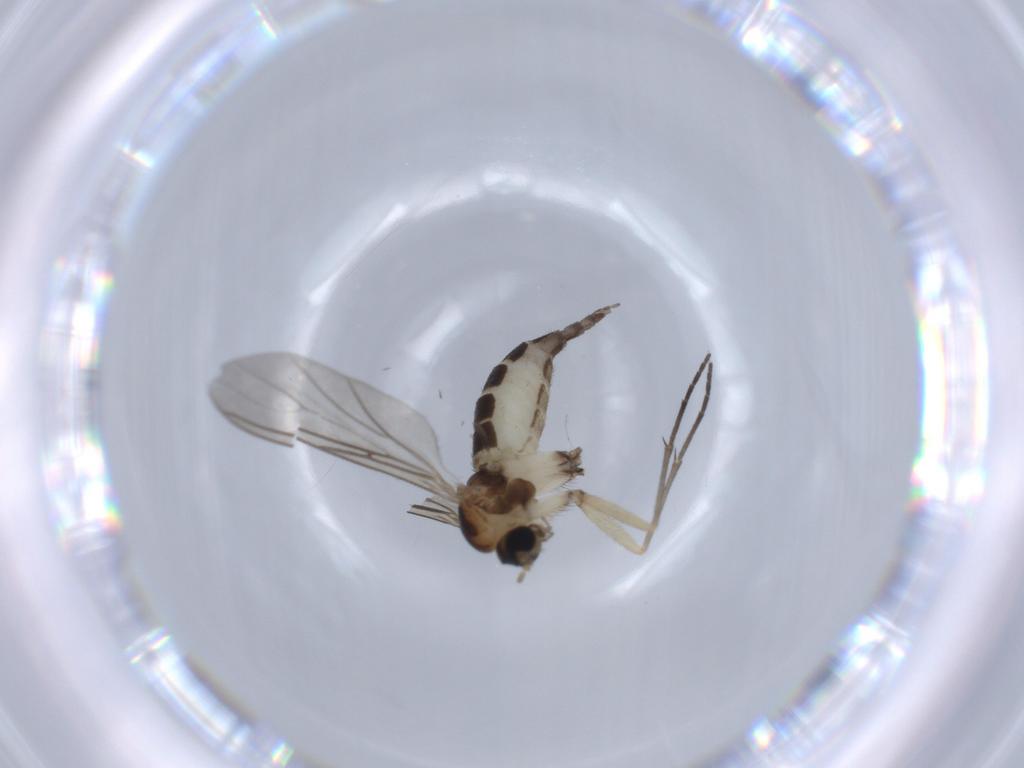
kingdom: Animalia
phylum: Arthropoda
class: Insecta
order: Diptera
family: Sciaridae
